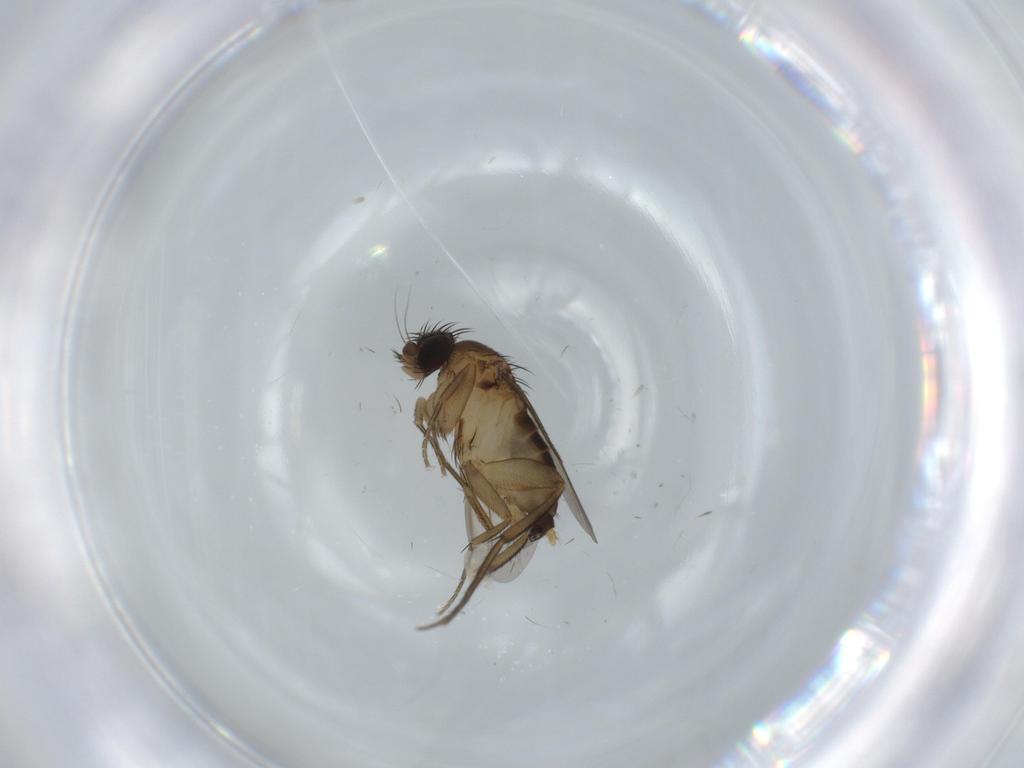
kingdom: Animalia
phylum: Arthropoda
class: Insecta
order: Diptera
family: Phoridae
